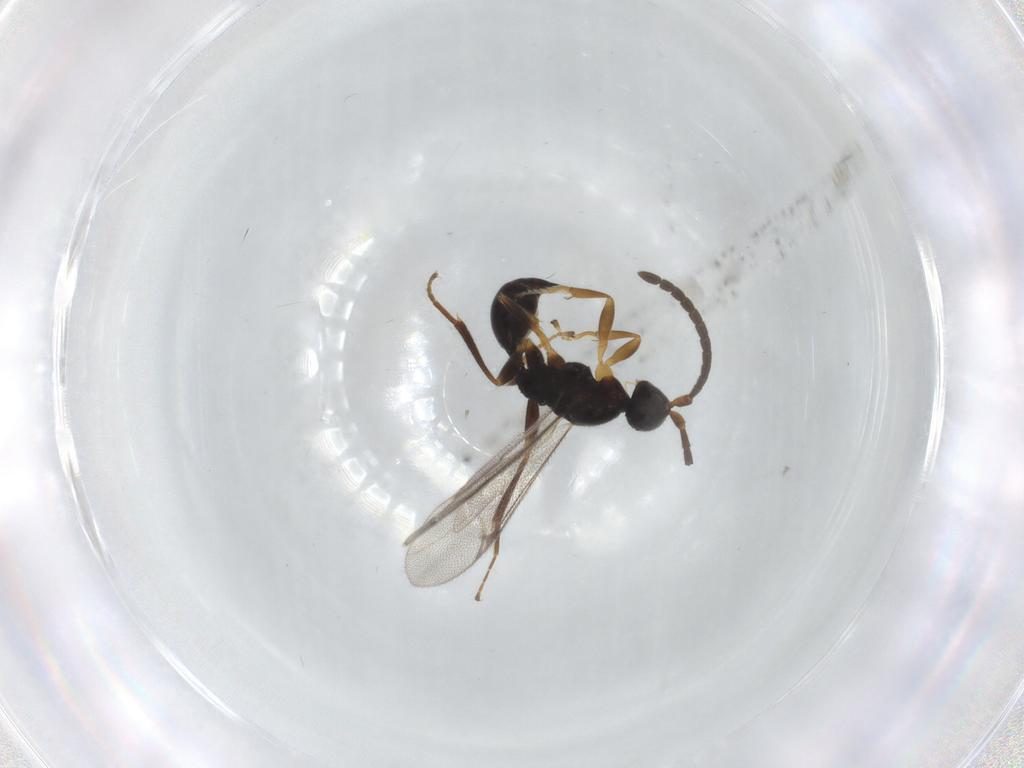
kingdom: Animalia
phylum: Arthropoda
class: Insecta
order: Hymenoptera
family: Proctotrupidae
